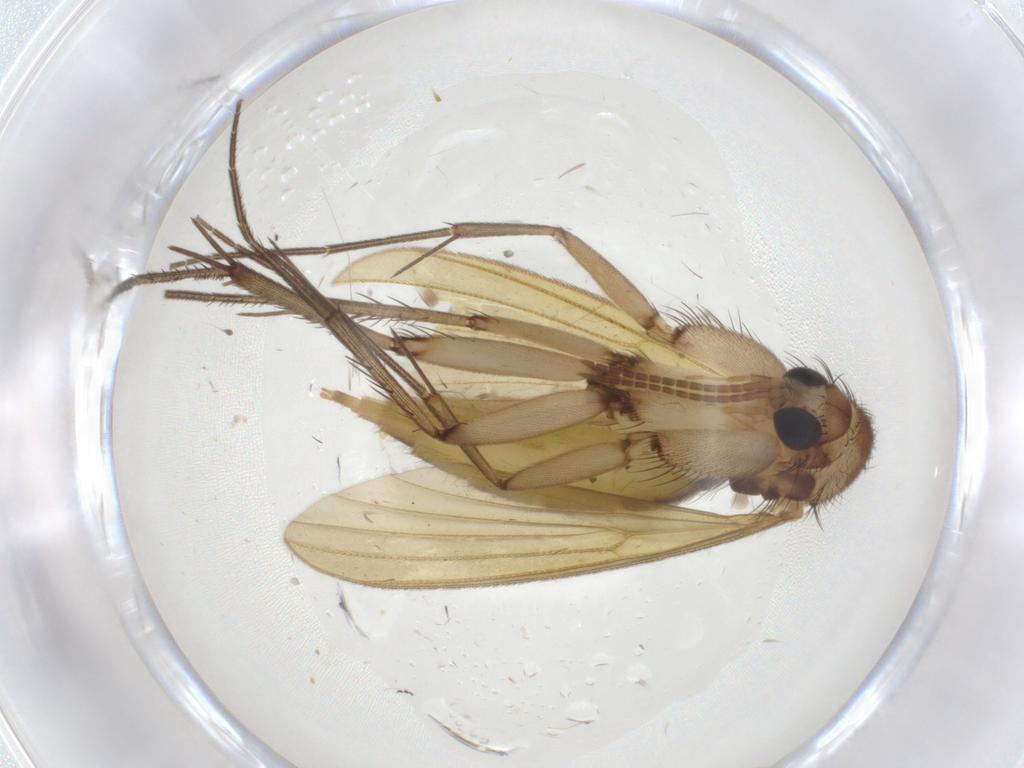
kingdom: Animalia
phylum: Arthropoda
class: Insecta
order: Diptera
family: Mycetophilidae
